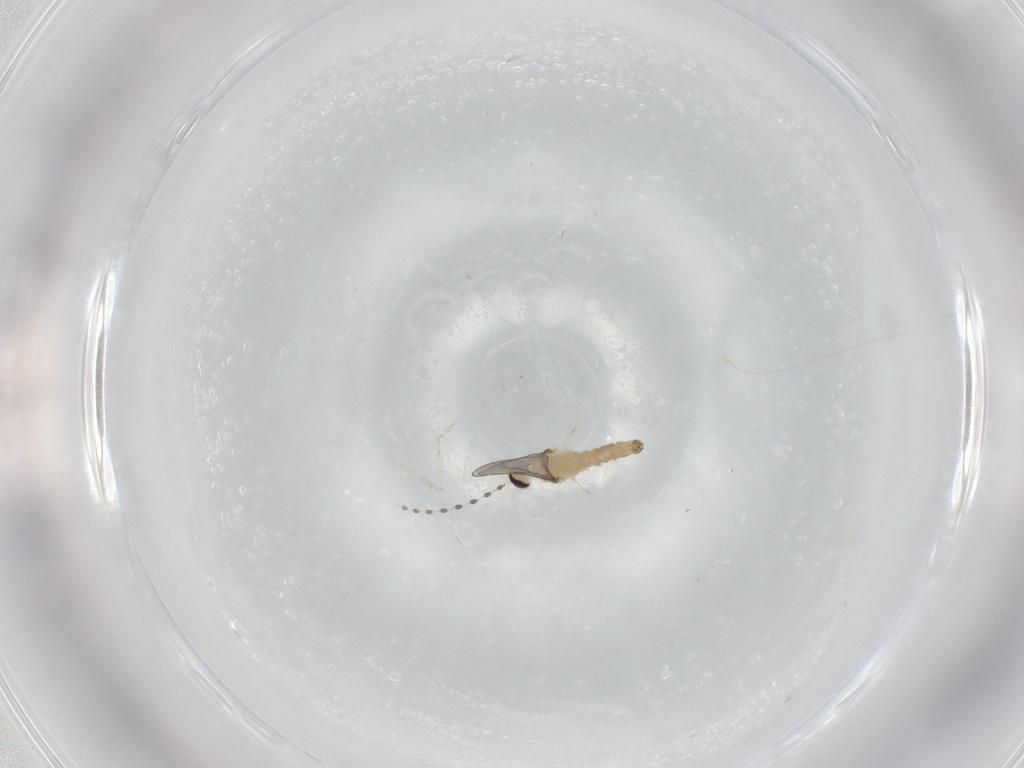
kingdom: Animalia
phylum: Arthropoda
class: Insecta
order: Diptera
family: Cecidomyiidae
